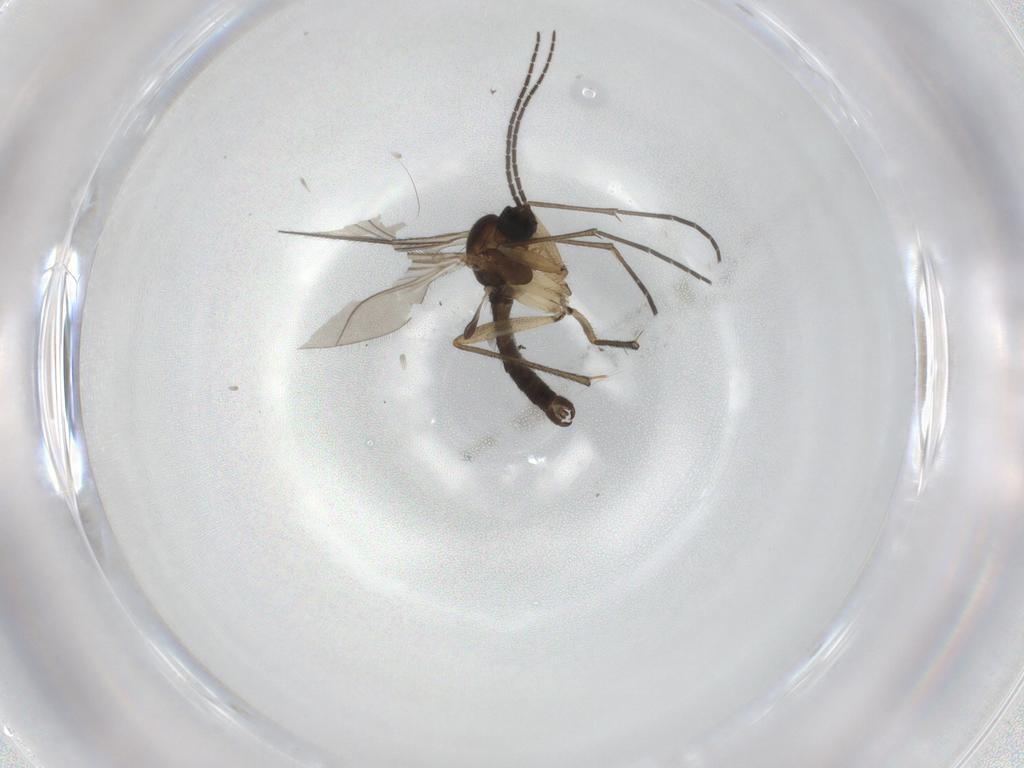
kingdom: Animalia
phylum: Arthropoda
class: Insecta
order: Diptera
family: Sciaridae
